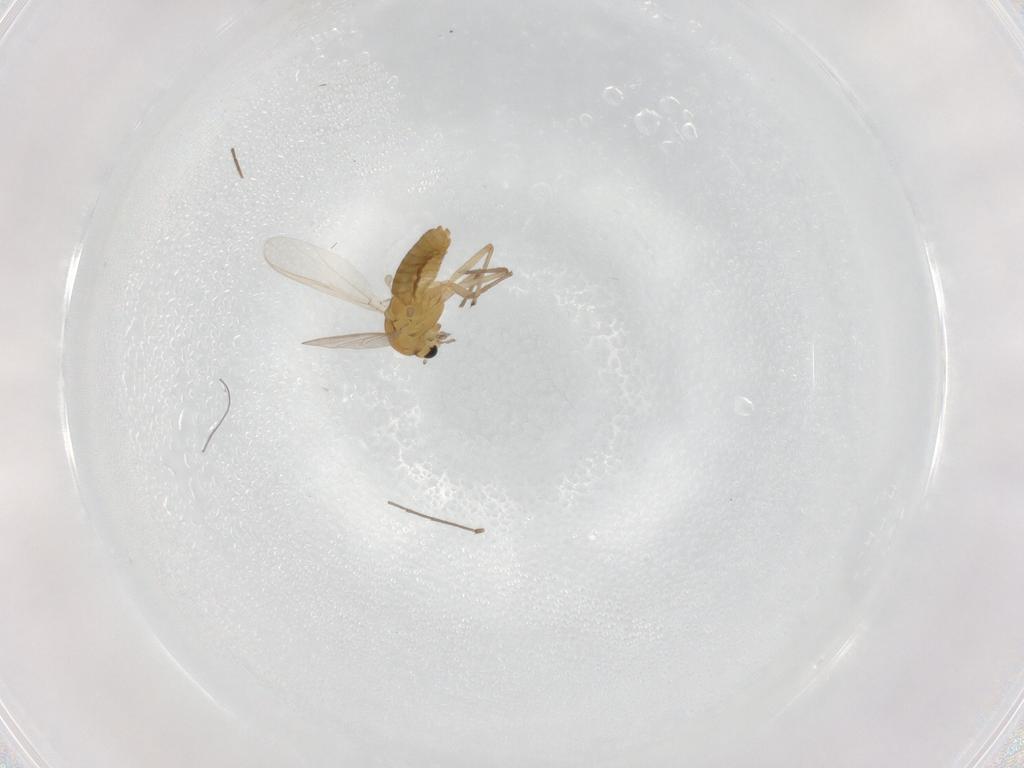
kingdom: Animalia
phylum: Arthropoda
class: Insecta
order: Diptera
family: Chironomidae
